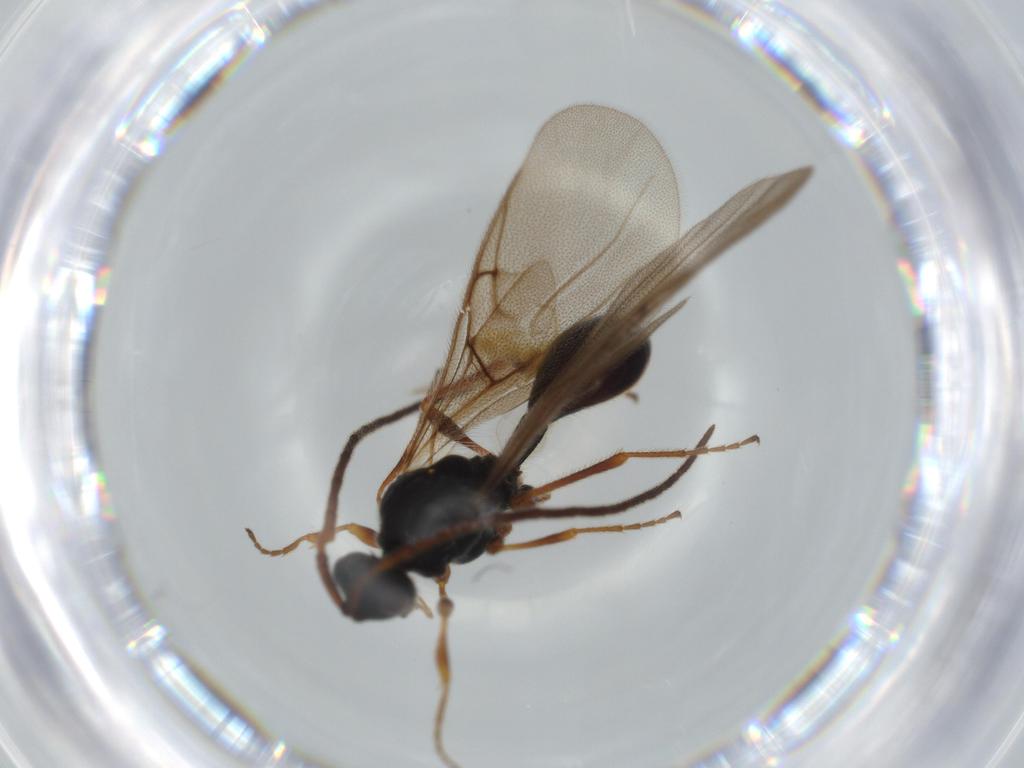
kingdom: Animalia
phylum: Arthropoda
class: Insecta
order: Hymenoptera
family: Eulophidae
